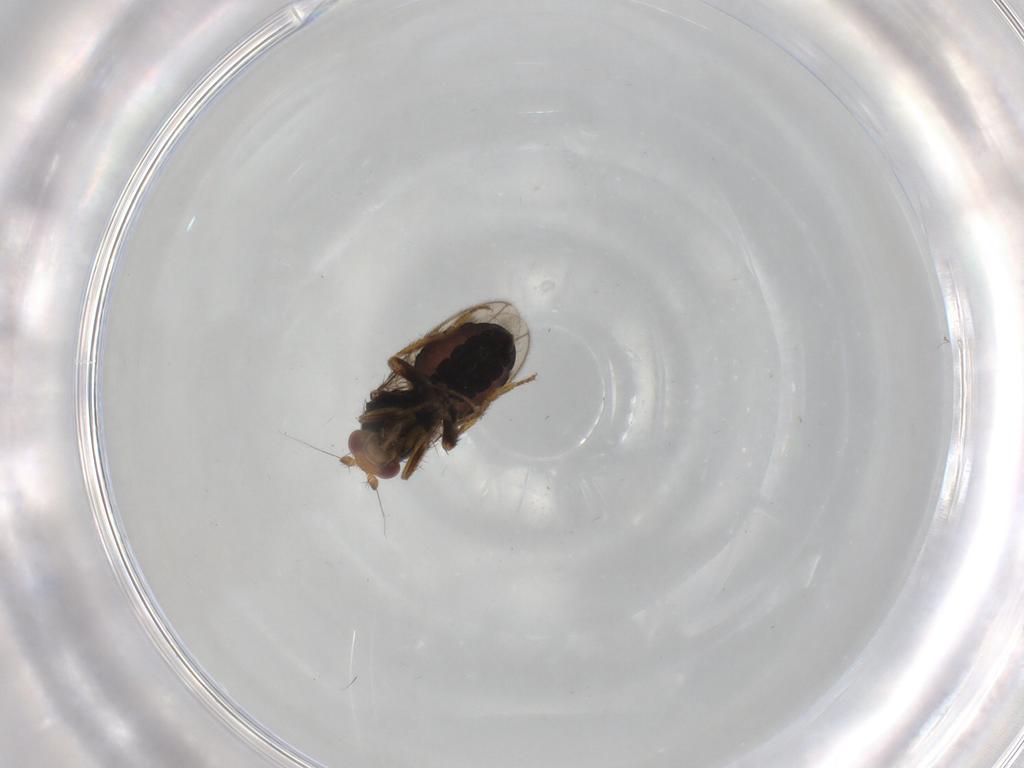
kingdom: Animalia
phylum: Arthropoda
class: Insecta
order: Diptera
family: Sphaeroceridae
